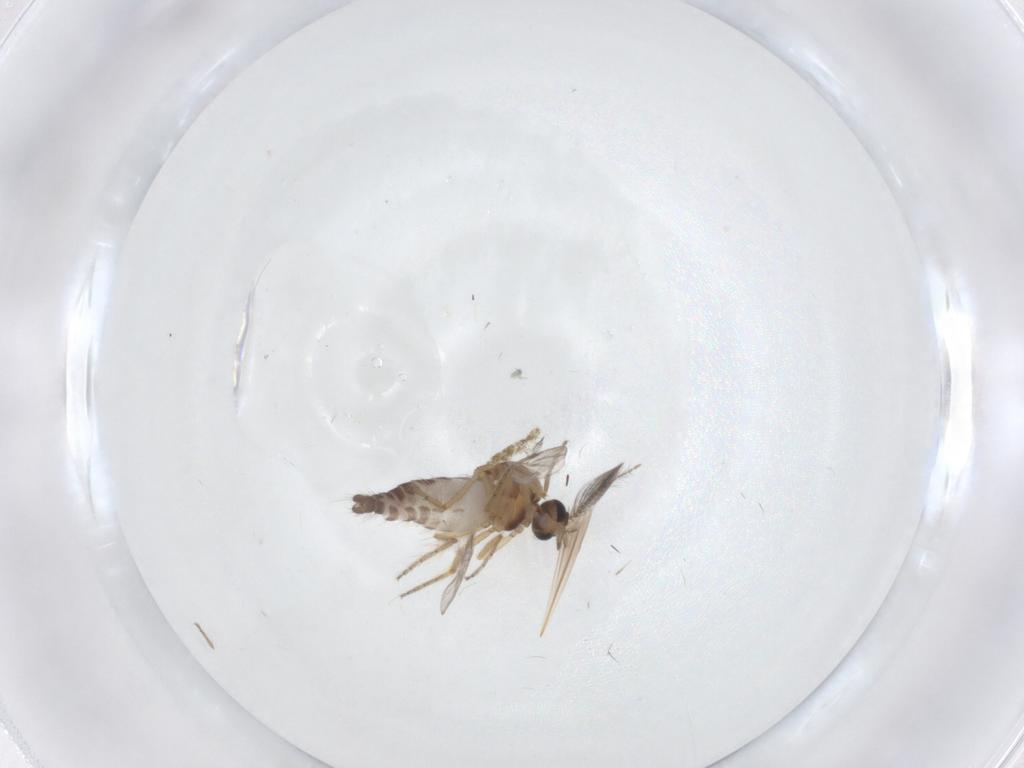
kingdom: Animalia
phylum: Arthropoda
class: Insecta
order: Diptera
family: Ceratopogonidae
